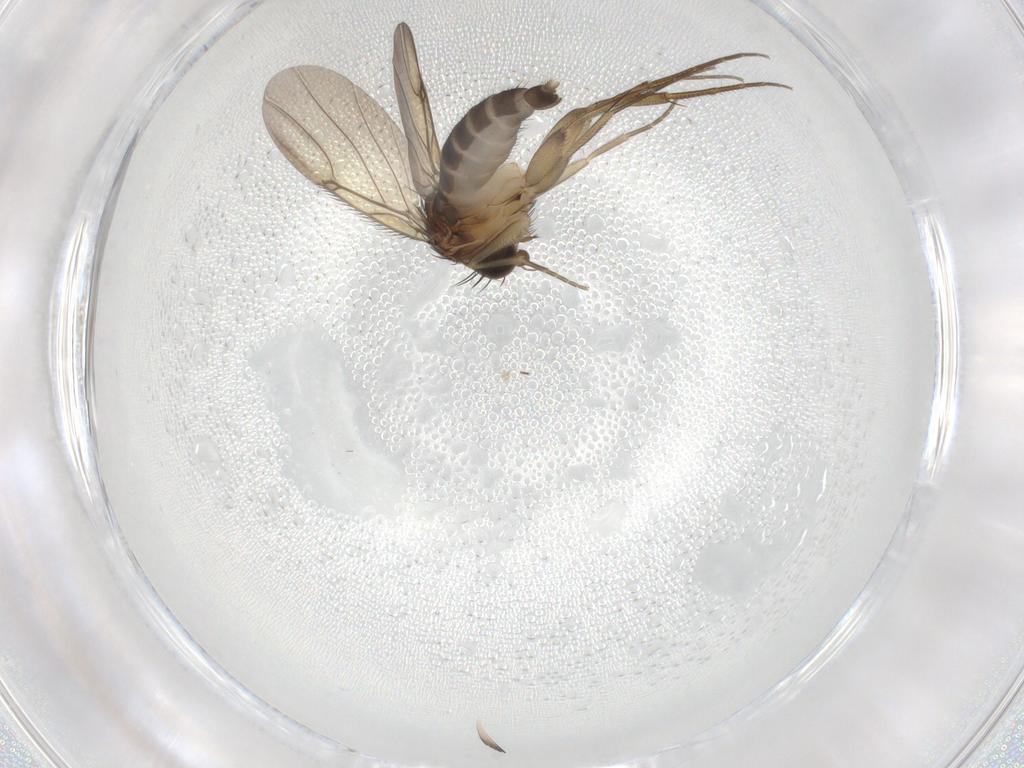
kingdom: Animalia
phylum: Arthropoda
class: Insecta
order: Diptera
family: Phoridae
